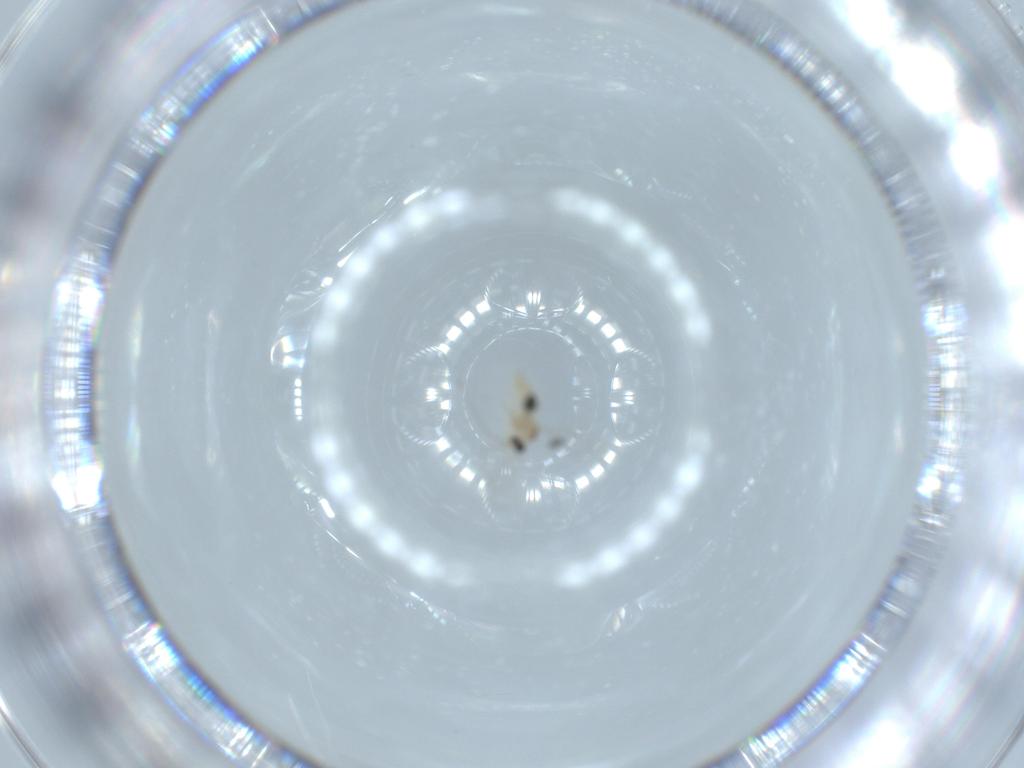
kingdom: Animalia
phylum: Arthropoda
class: Insecta
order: Diptera
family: Cecidomyiidae
